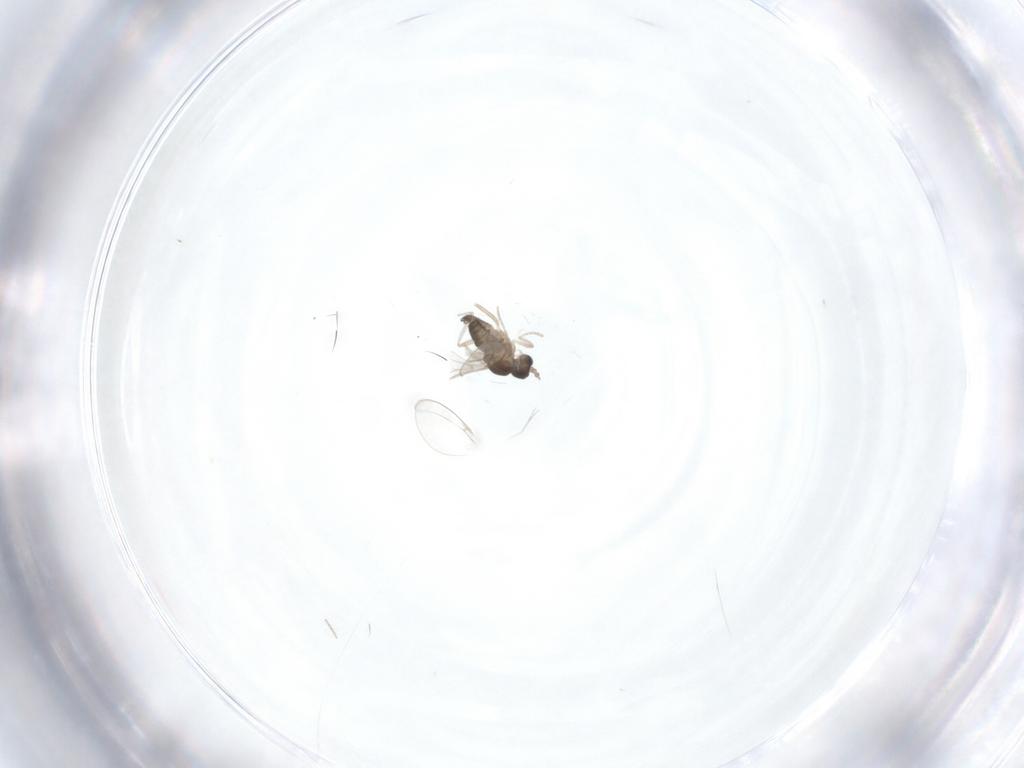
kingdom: Animalia
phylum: Arthropoda
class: Insecta
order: Diptera
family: Cecidomyiidae
